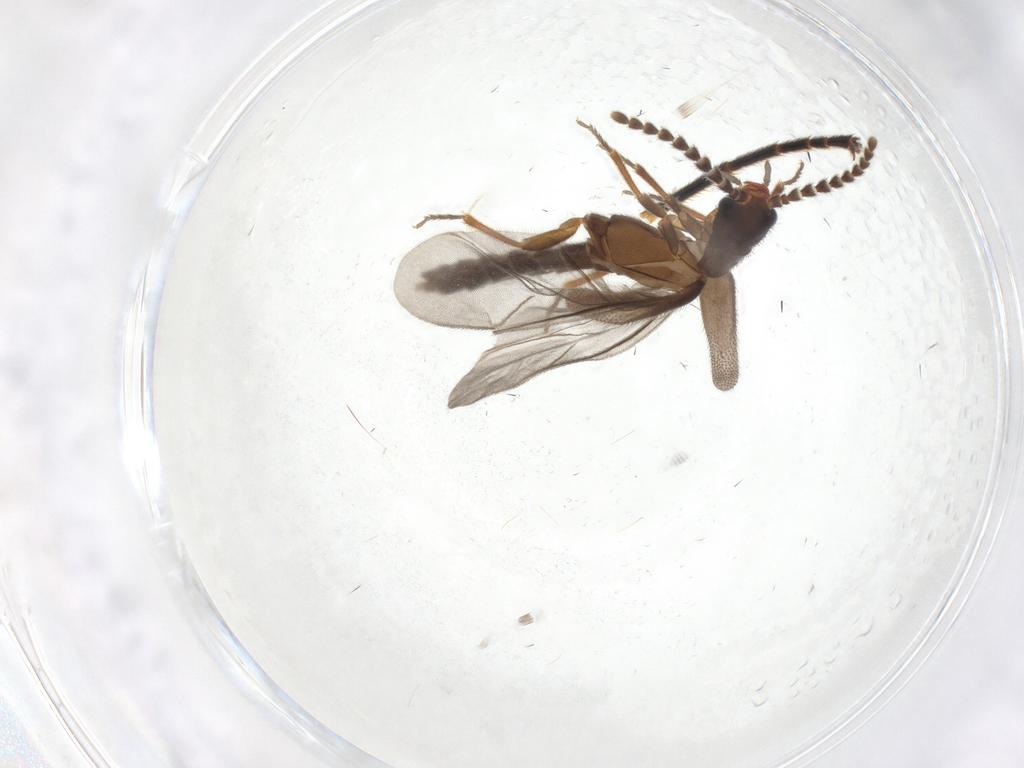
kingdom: Animalia
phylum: Arthropoda
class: Insecta
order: Coleoptera
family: Omethidae
